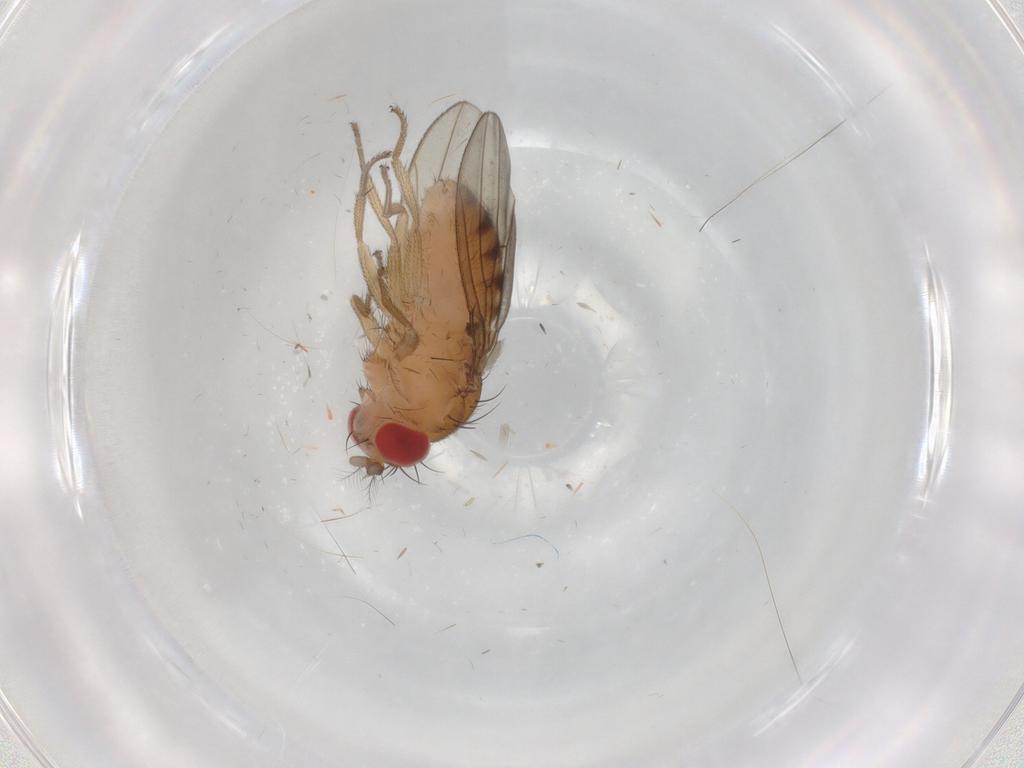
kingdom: Animalia
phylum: Arthropoda
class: Insecta
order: Diptera
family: Drosophilidae
